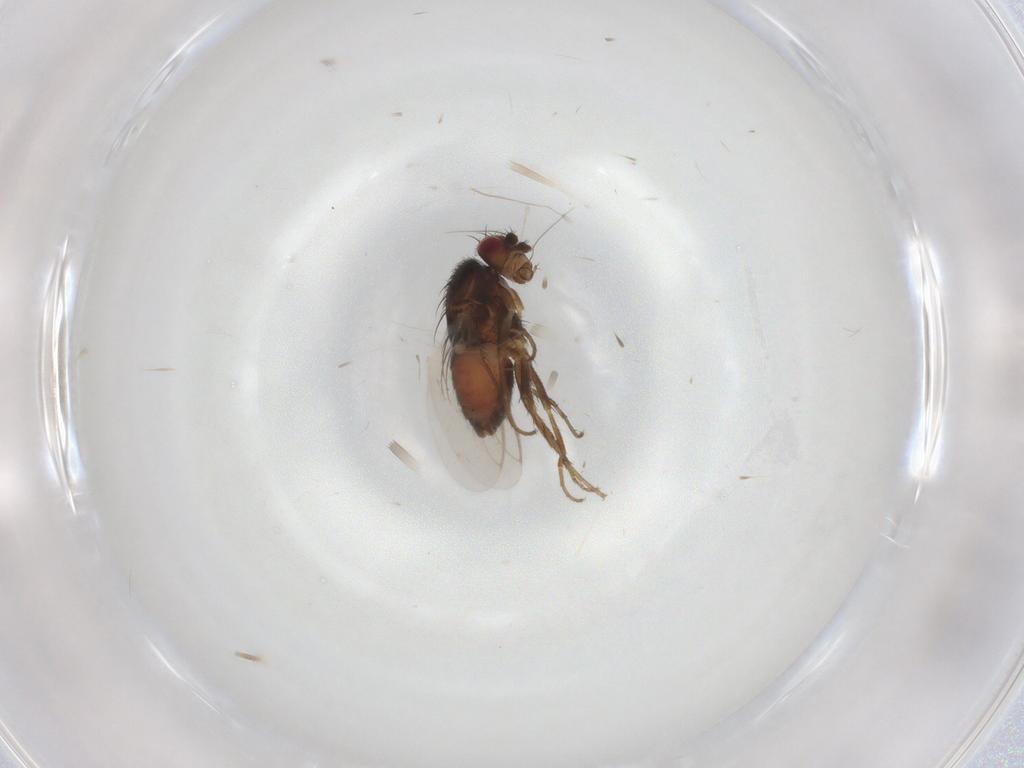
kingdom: Animalia
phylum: Arthropoda
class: Insecta
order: Diptera
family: Sphaeroceridae
